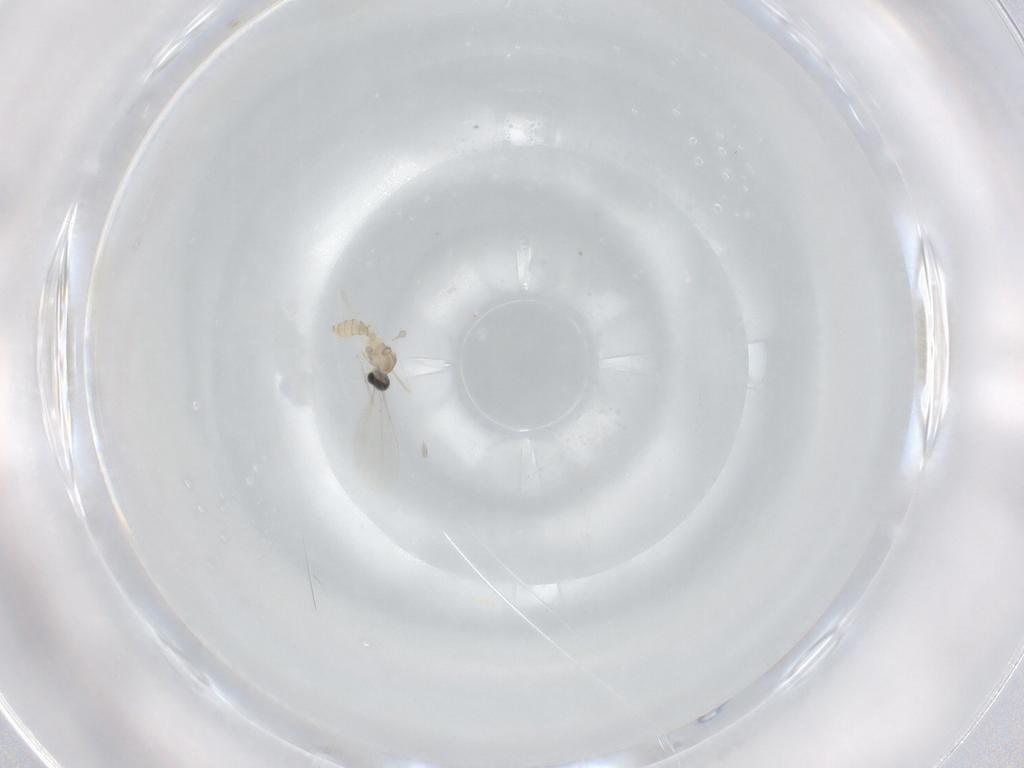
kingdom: Animalia
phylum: Arthropoda
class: Insecta
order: Diptera
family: Cecidomyiidae
